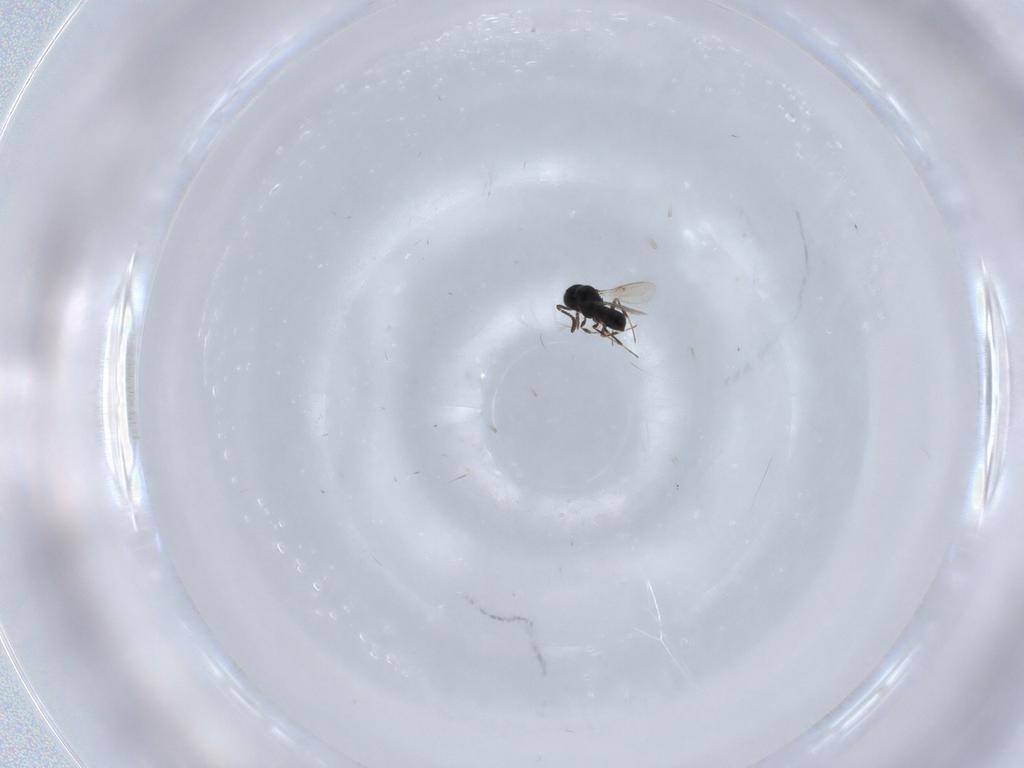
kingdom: Animalia
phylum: Arthropoda
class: Insecta
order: Hymenoptera
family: Scelionidae
